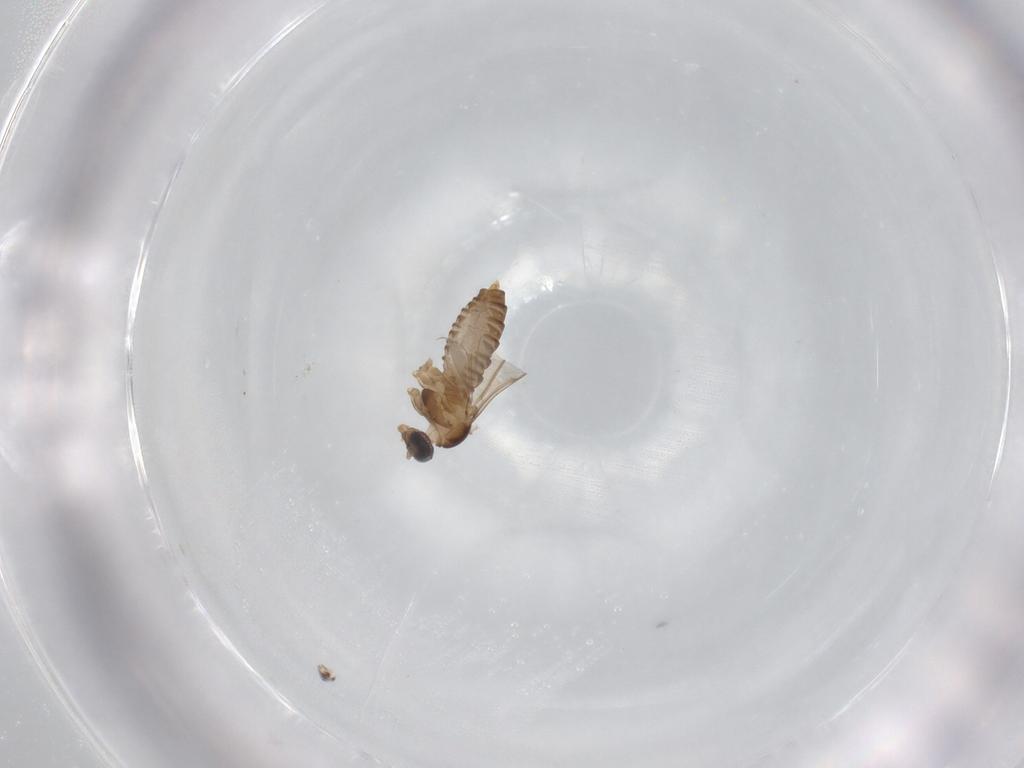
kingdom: Animalia
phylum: Arthropoda
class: Insecta
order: Diptera
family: Cecidomyiidae
